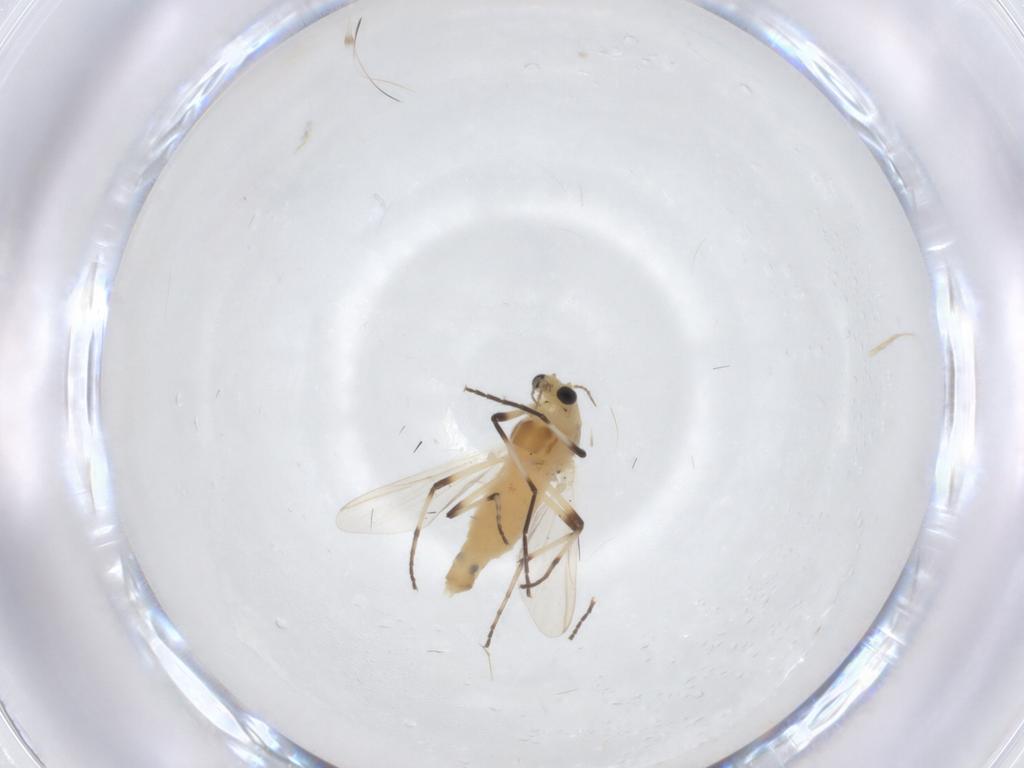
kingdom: Animalia
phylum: Arthropoda
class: Insecta
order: Diptera
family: Chironomidae
